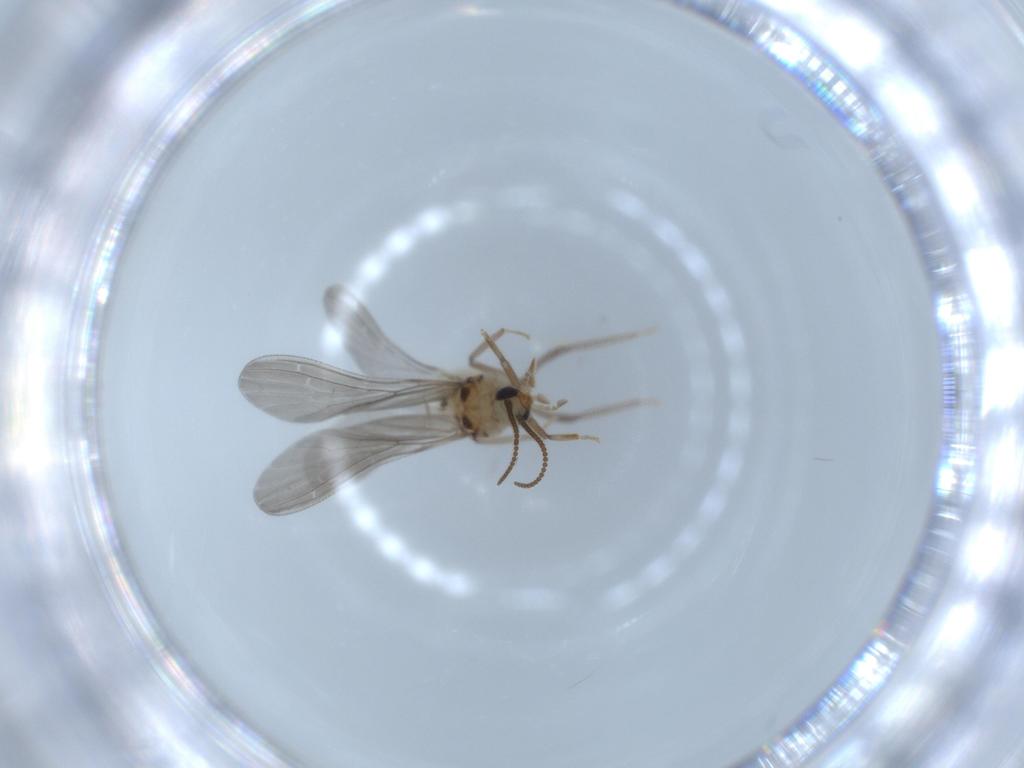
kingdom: Animalia
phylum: Arthropoda
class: Insecta
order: Neuroptera
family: Coniopterygidae
